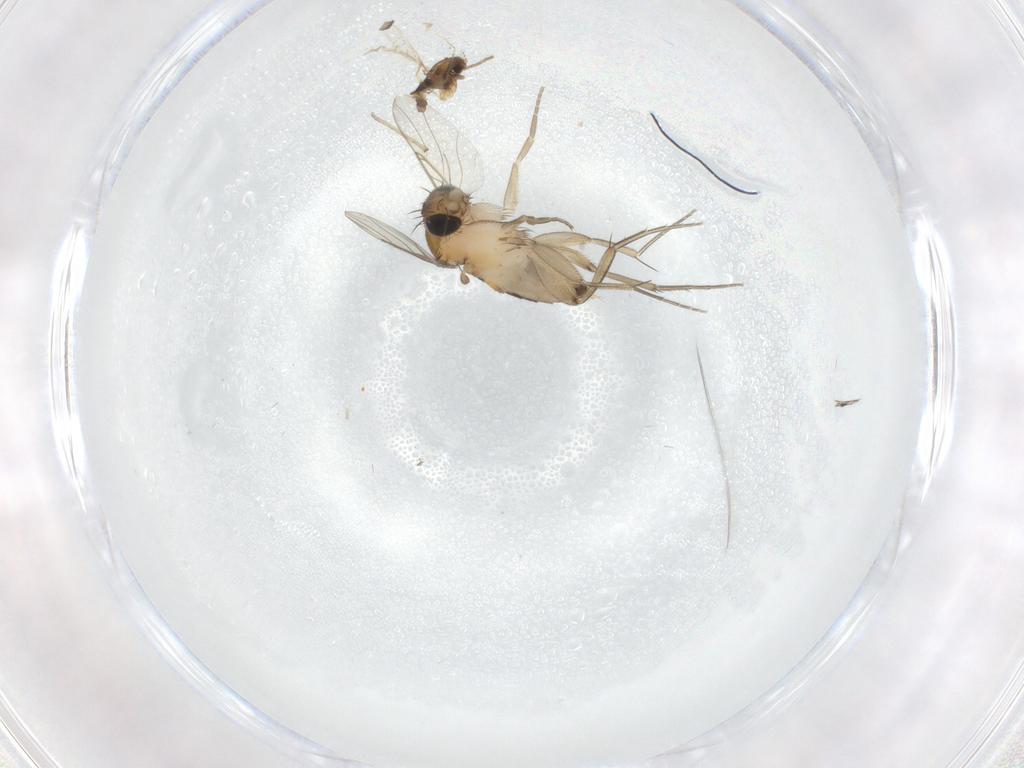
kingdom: Animalia
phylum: Arthropoda
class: Insecta
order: Diptera
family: Phoridae
